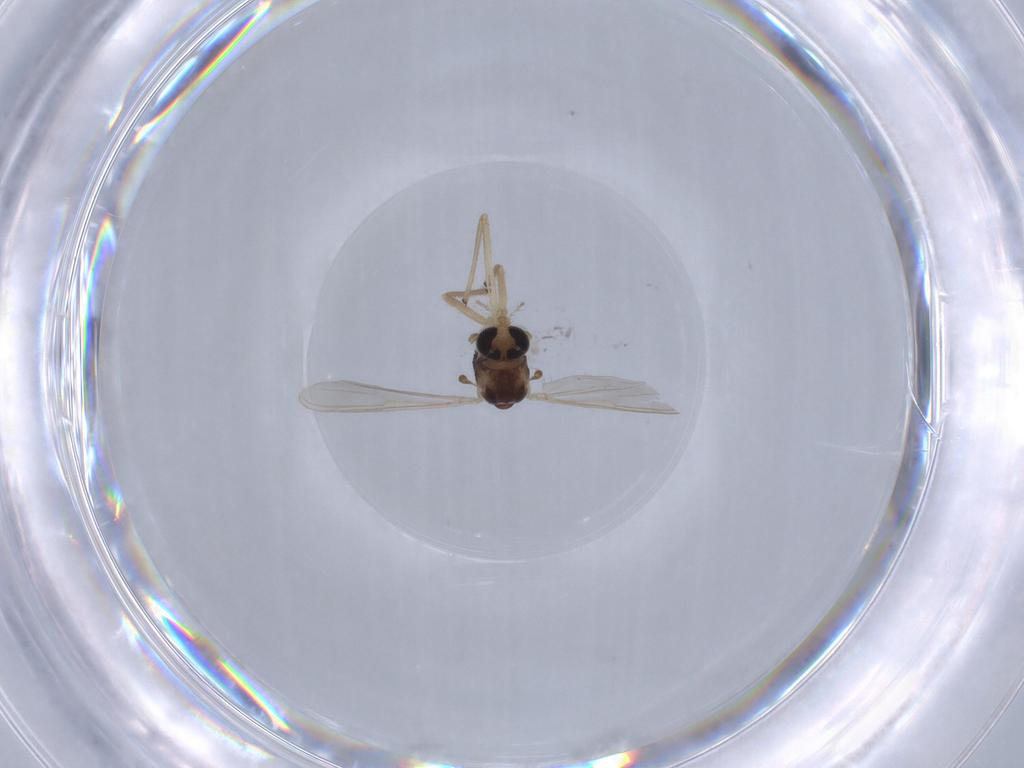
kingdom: Animalia
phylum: Arthropoda
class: Insecta
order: Diptera
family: Chironomidae
